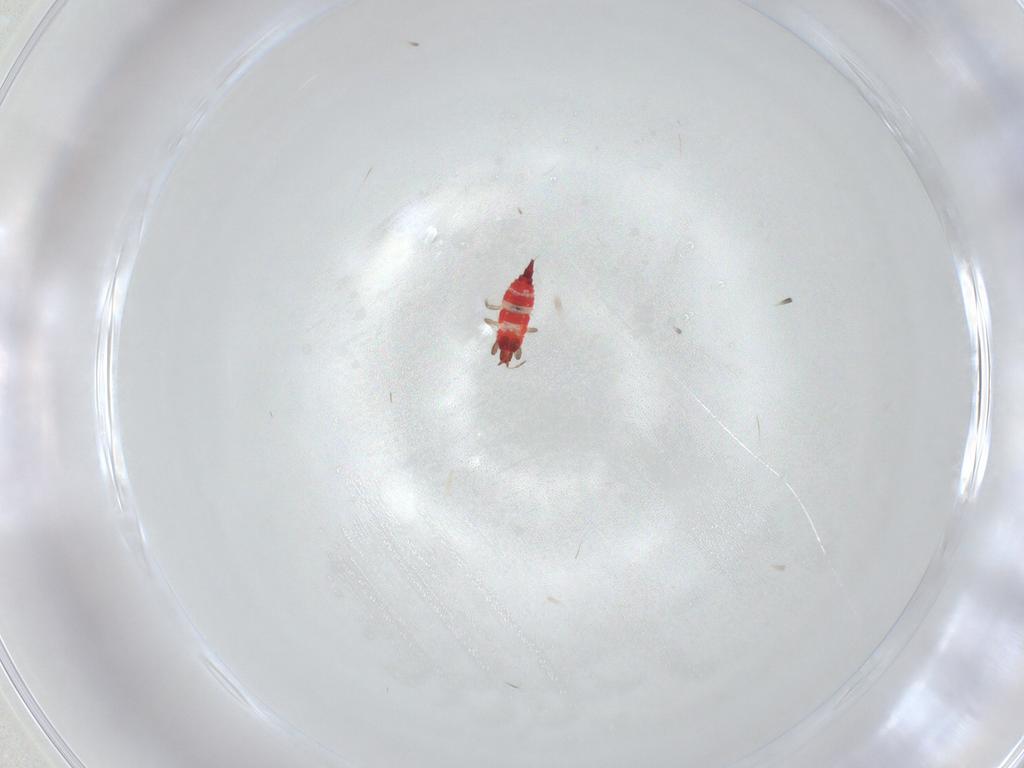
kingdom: Animalia
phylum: Arthropoda
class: Insecta
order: Thysanoptera
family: Phlaeothripidae
